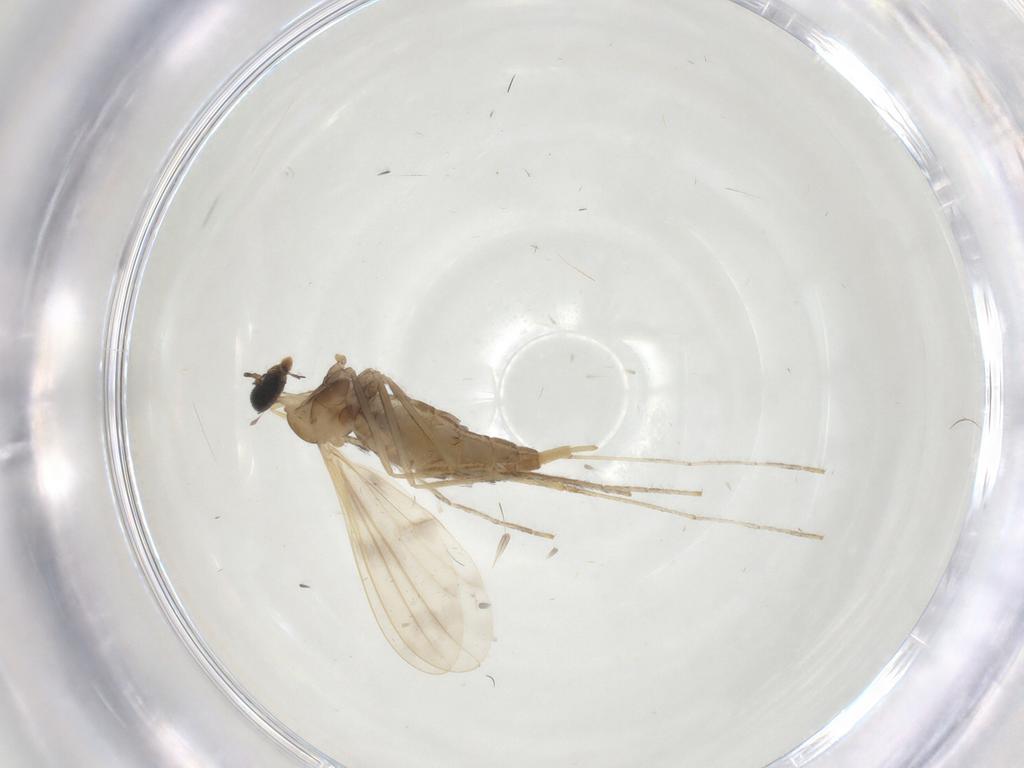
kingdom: Animalia
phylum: Arthropoda
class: Insecta
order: Diptera
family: Cecidomyiidae
